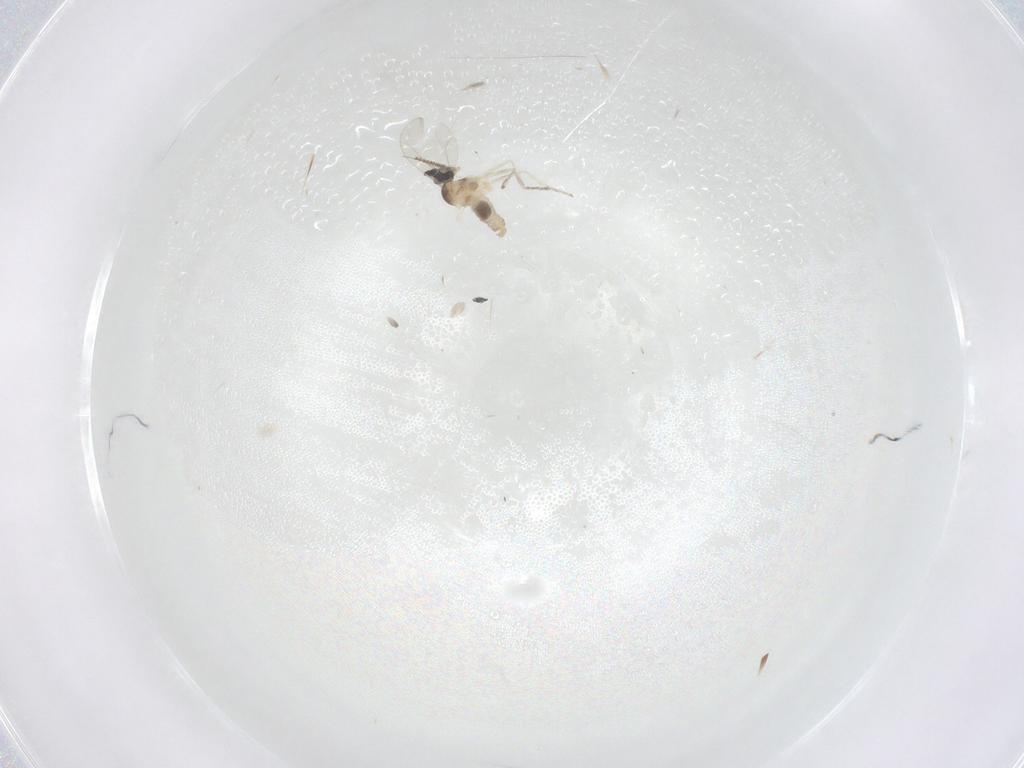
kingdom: Animalia
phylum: Arthropoda
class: Insecta
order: Diptera
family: Cecidomyiidae
